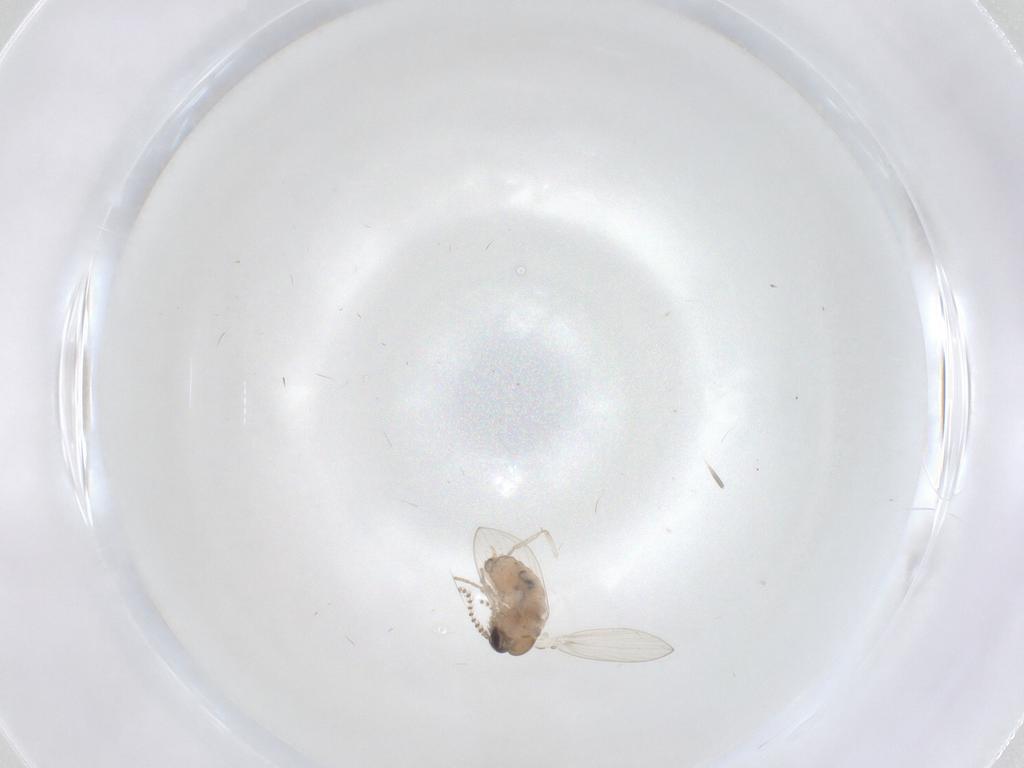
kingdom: Animalia
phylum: Arthropoda
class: Insecta
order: Diptera
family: Psychodidae
